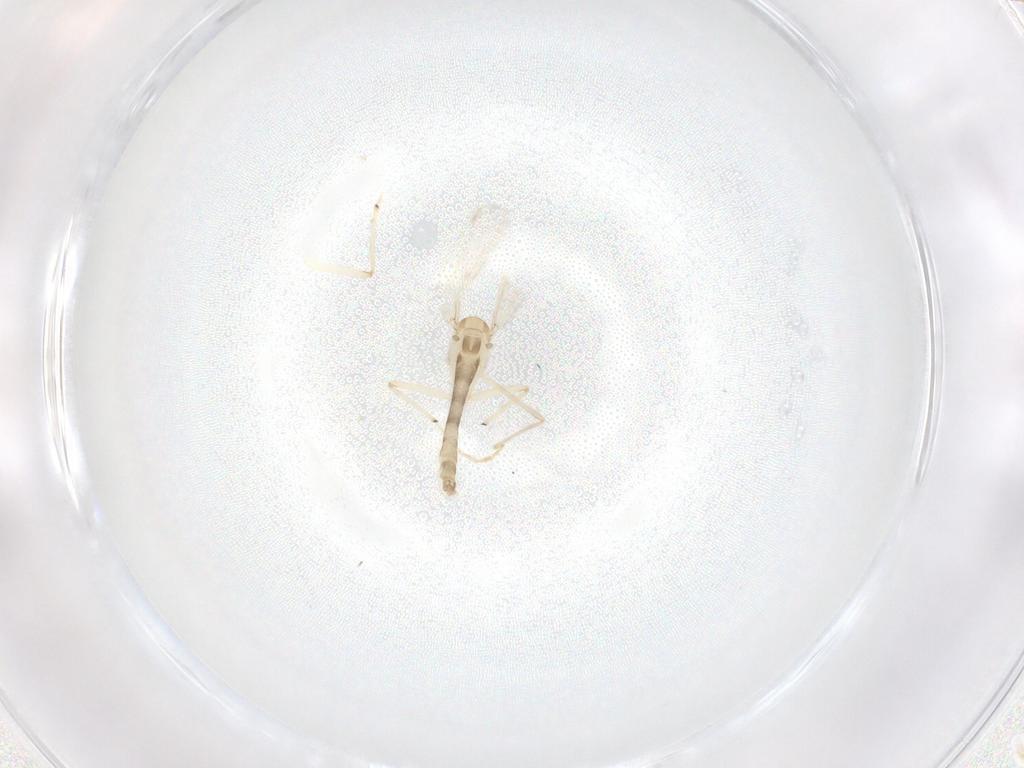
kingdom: Animalia
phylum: Arthropoda
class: Insecta
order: Diptera
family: Chironomidae
